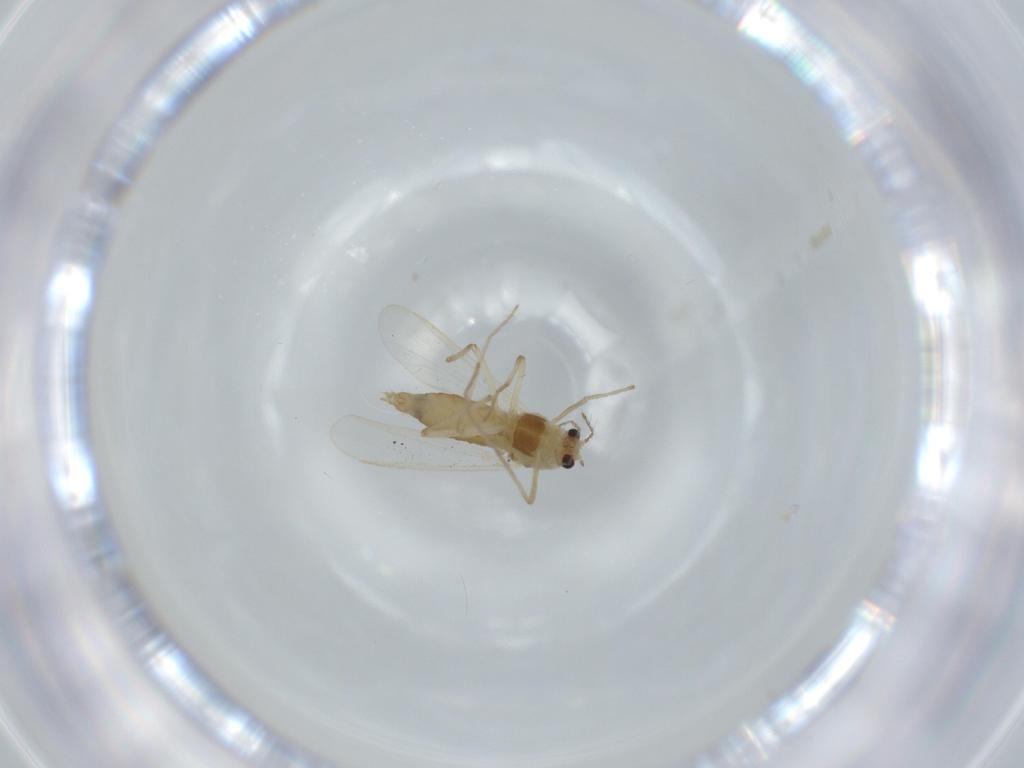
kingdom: Animalia
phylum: Arthropoda
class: Insecta
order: Diptera
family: Chironomidae
